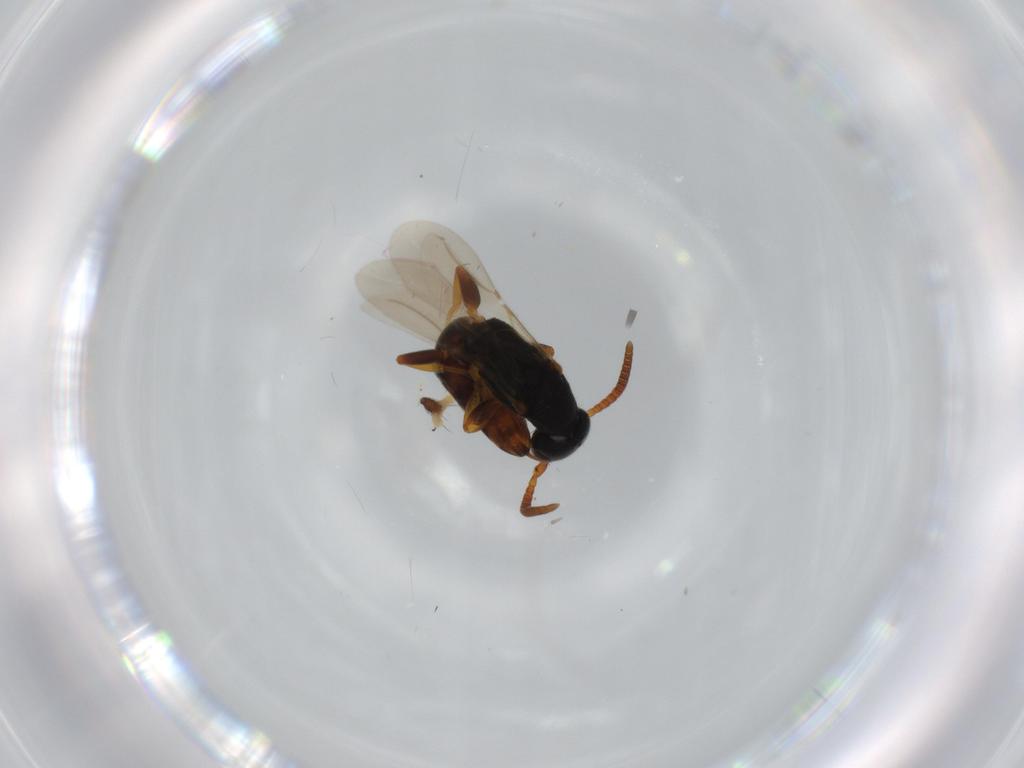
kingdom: Animalia
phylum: Arthropoda
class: Insecta
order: Hymenoptera
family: Bethylidae
